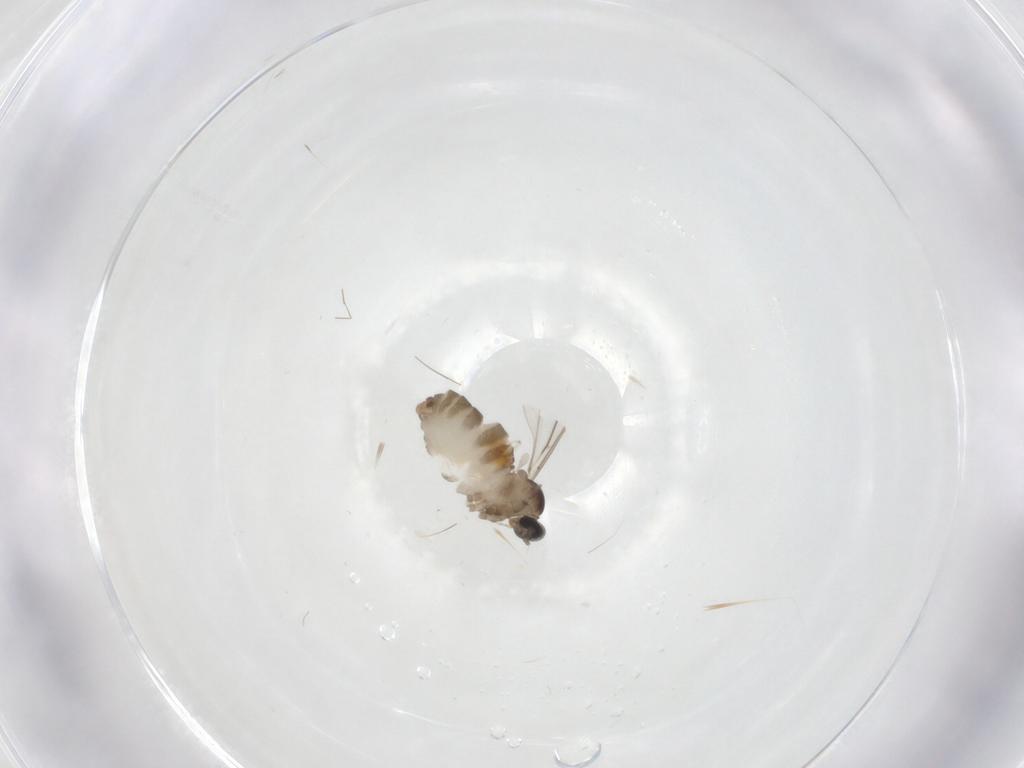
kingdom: Animalia
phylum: Arthropoda
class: Insecta
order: Diptera
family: Cecidomyiidae
